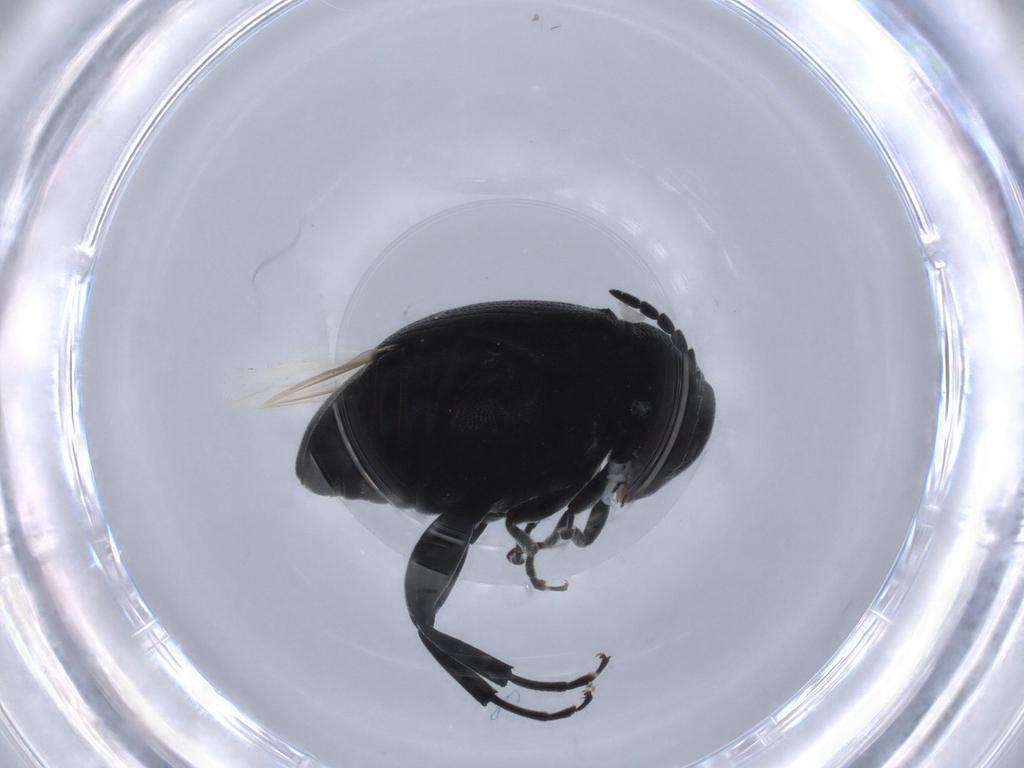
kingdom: Animalia
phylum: Arthropoda
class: Insecta
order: Coleoptera
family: Chrysomelidae
